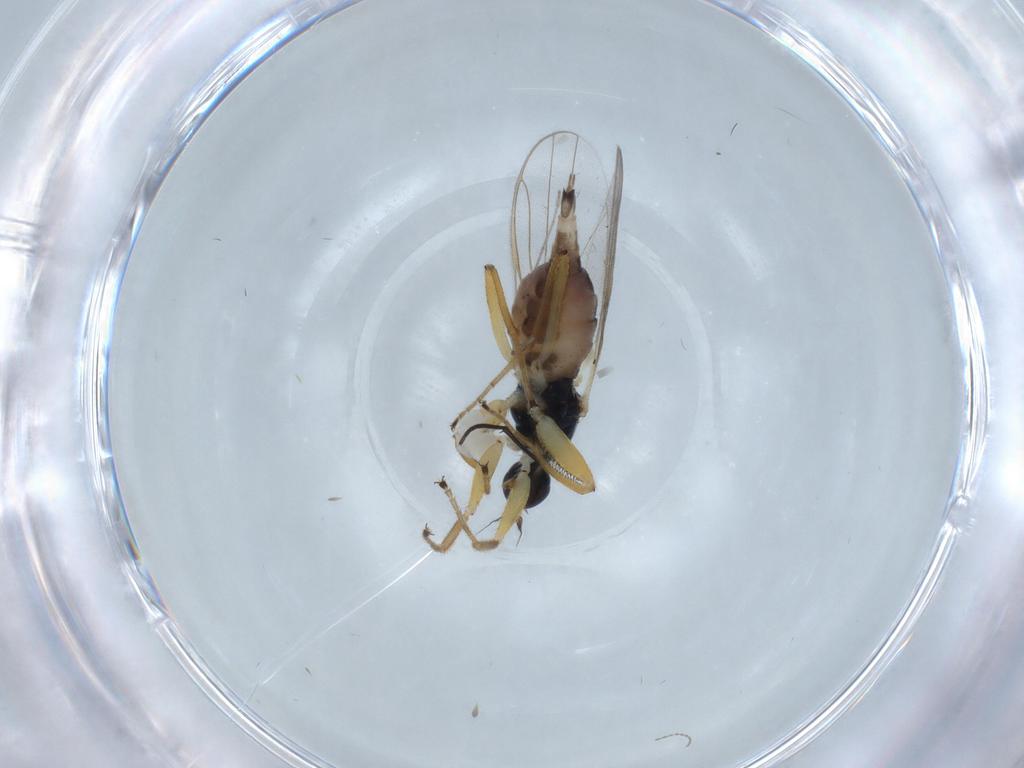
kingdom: Animalia
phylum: Arthropoda
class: Insecta
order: Diptera
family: Hybotidae
